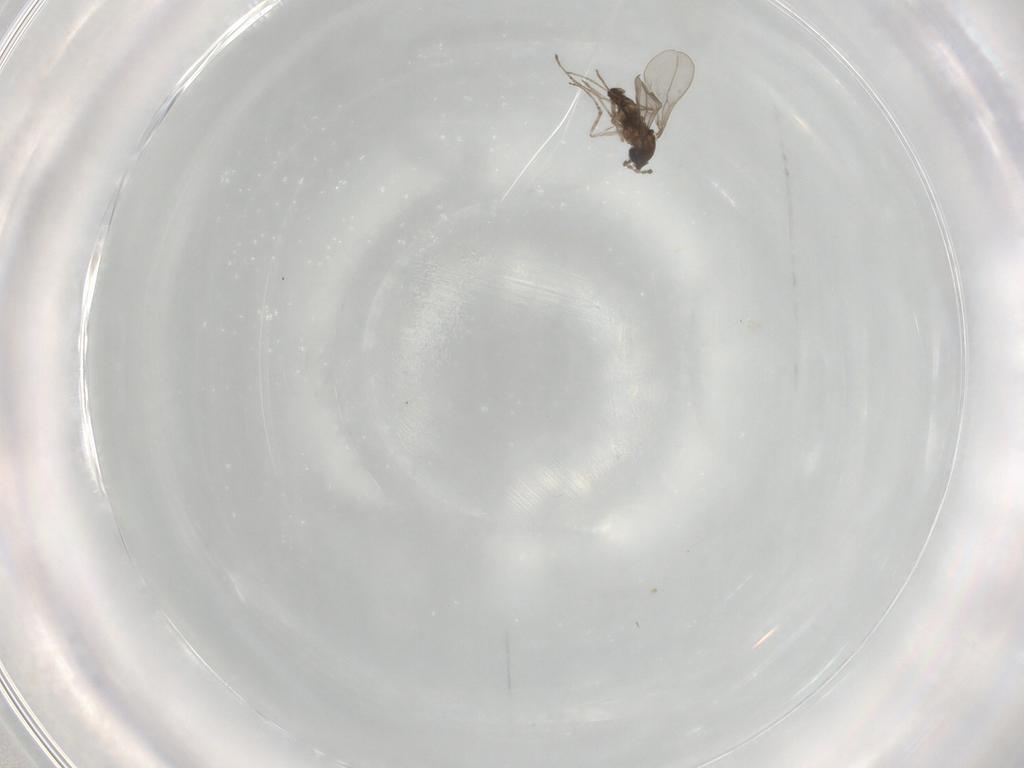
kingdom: Animalia
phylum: Arthropoda
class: Insecta
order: Diptera
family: Cecidomyiidae
